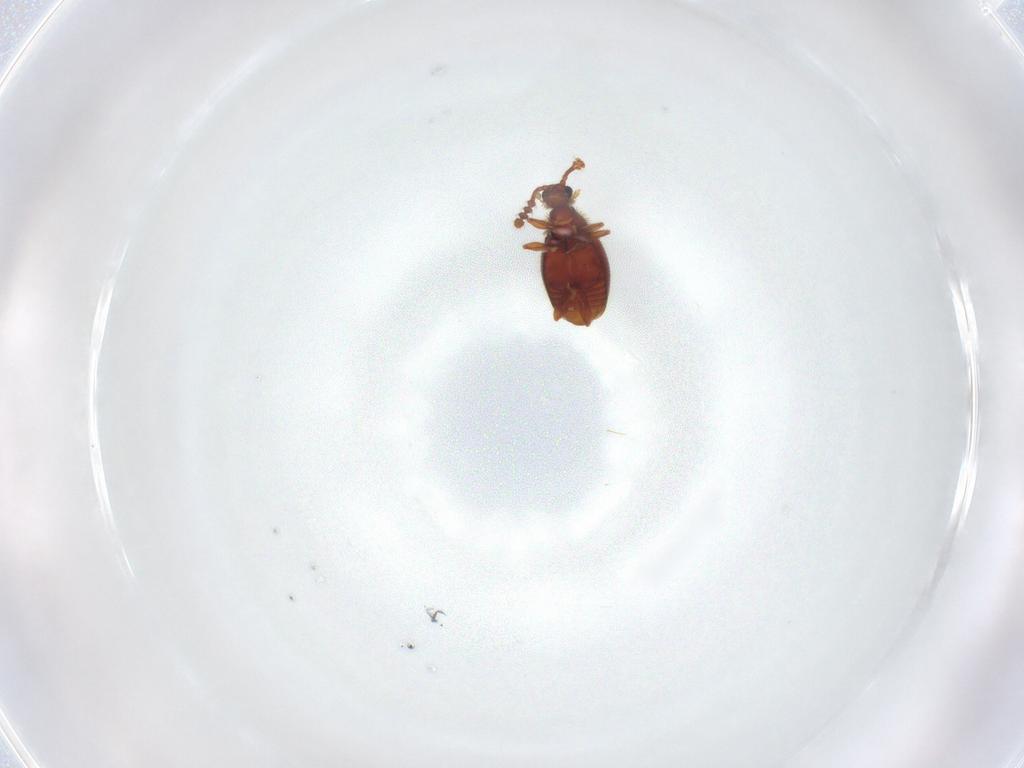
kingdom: Animalia
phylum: Arthropoda
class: Insecta
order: Coleoptera
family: Staphylinidae
